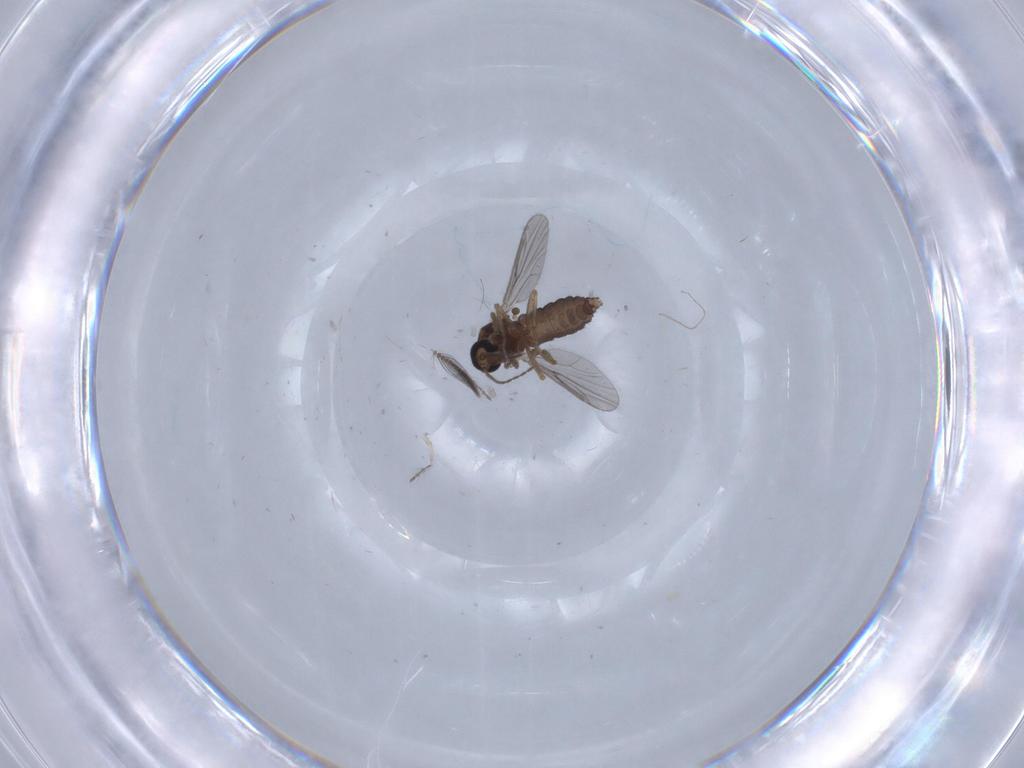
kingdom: Animalia
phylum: Arthropoda
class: Insecta
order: Diptera
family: Ceratopogonidae
